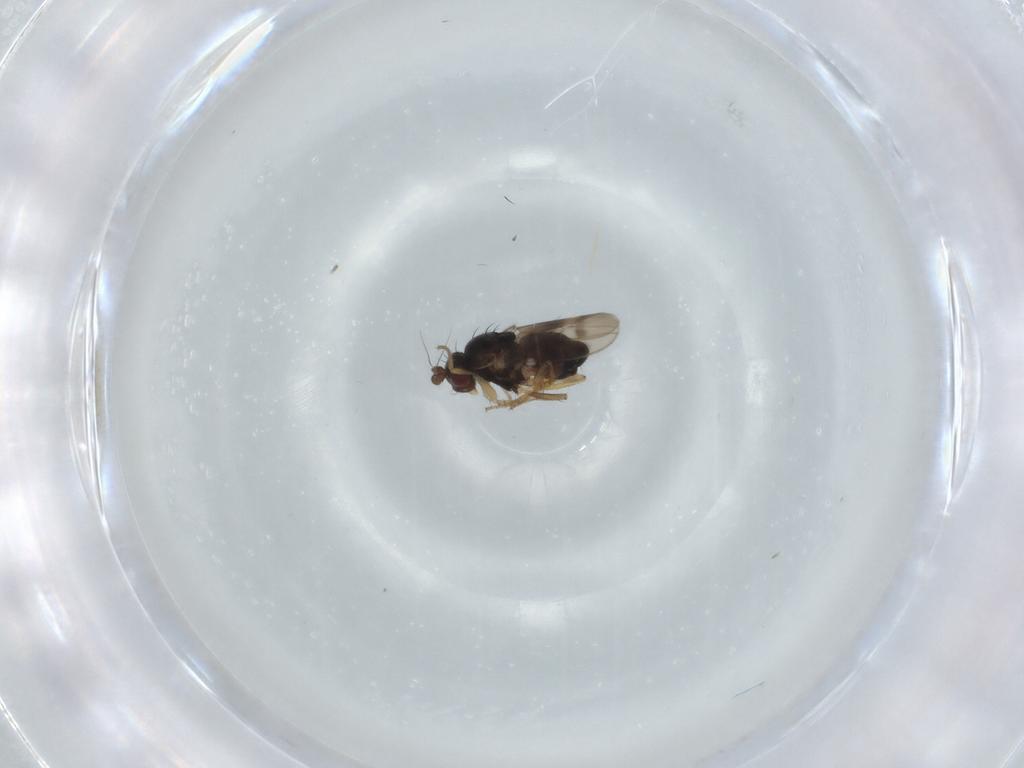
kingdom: Animalia
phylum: Arthropoda
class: Insecta
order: Diptera
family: Sphaeroceridae
